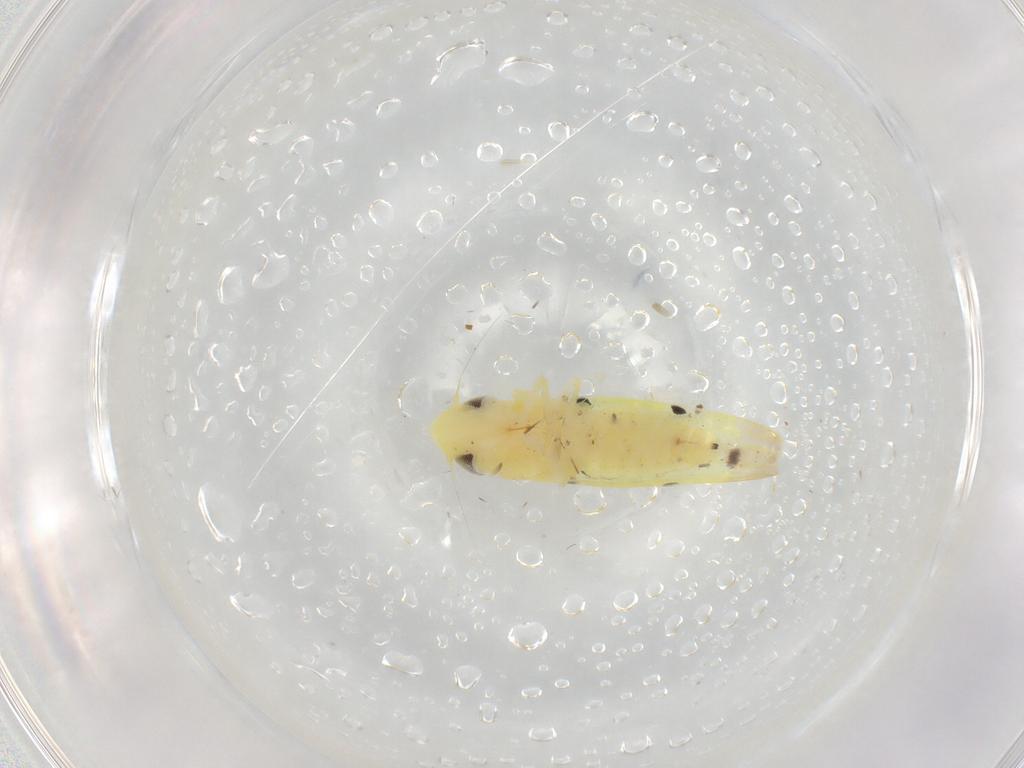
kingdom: Animalia
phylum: Arthropoda
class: Insecta
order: Hemiptera
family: Cicadellidae
